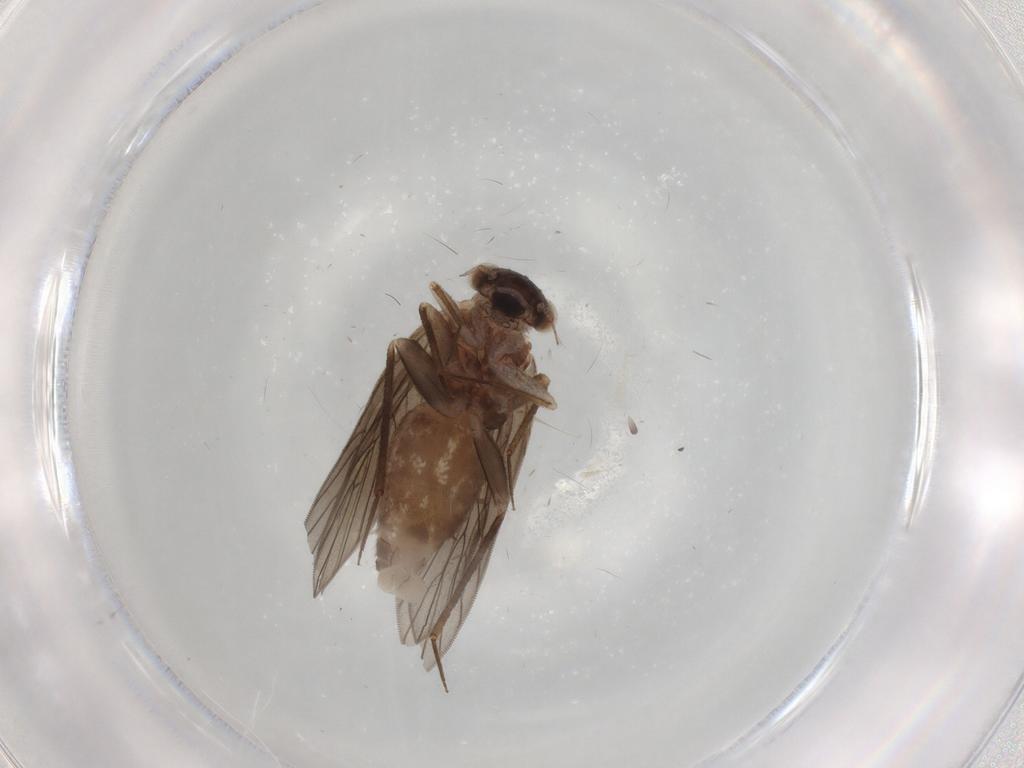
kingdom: Animalia
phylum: Arthropoda
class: Insecta
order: Psocodea
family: Lepidopsocidae
